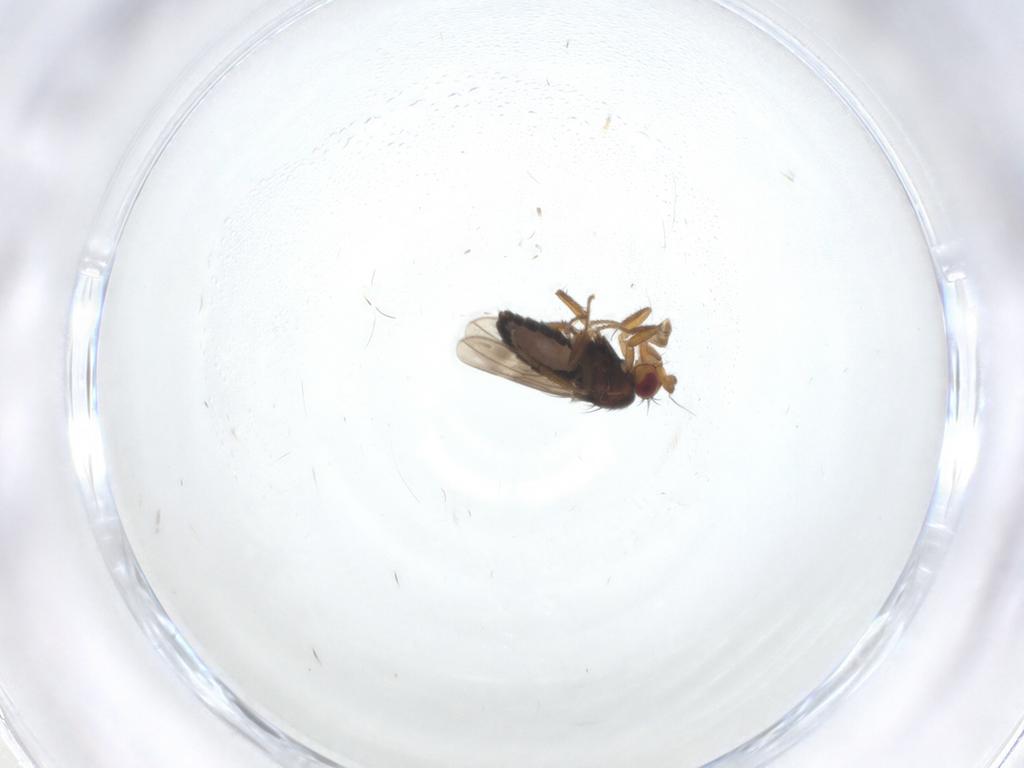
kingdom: Animalia
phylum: Arthropoda
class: Insecta
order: Diptera
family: Sphaeroceridae
